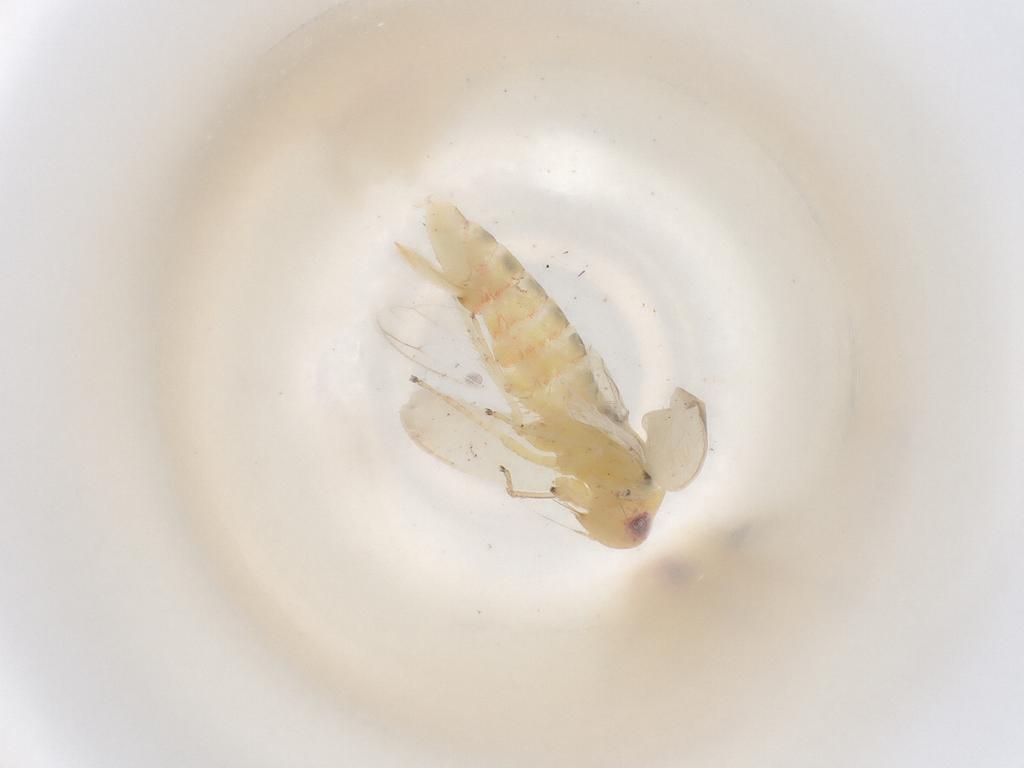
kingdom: Animalia
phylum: Arthropoda
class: Insecta
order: Hemiptera
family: Cicadellidae
